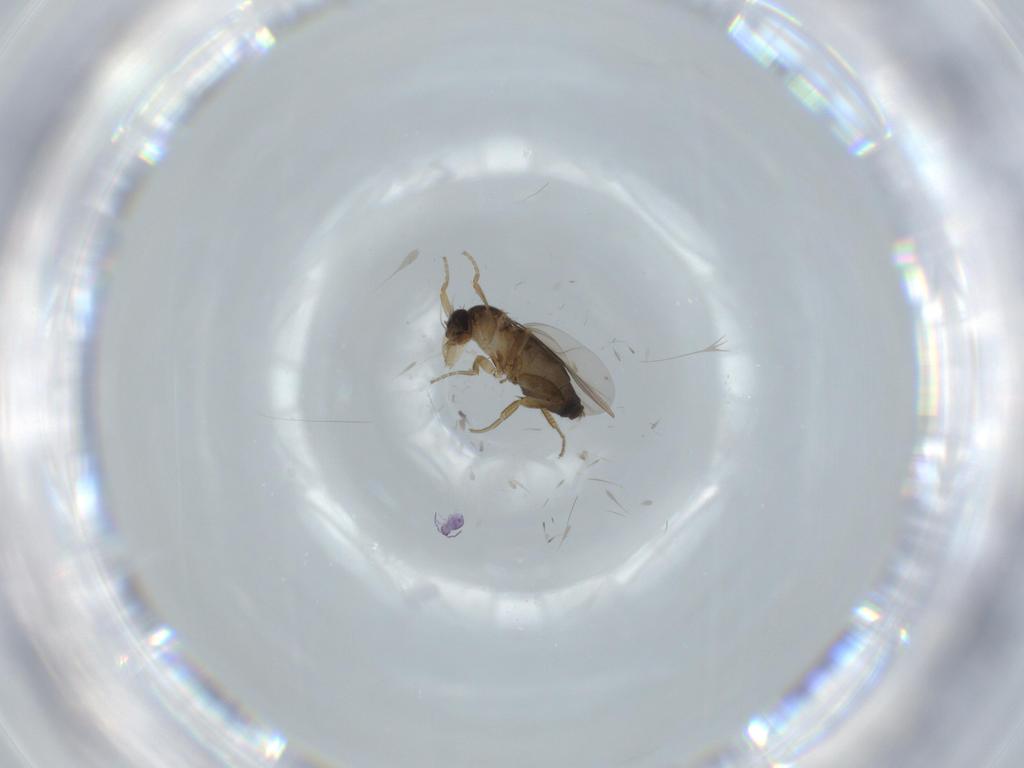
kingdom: Animalia
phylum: Arthropoda
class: Insecta
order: Diptera
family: Phoridae
